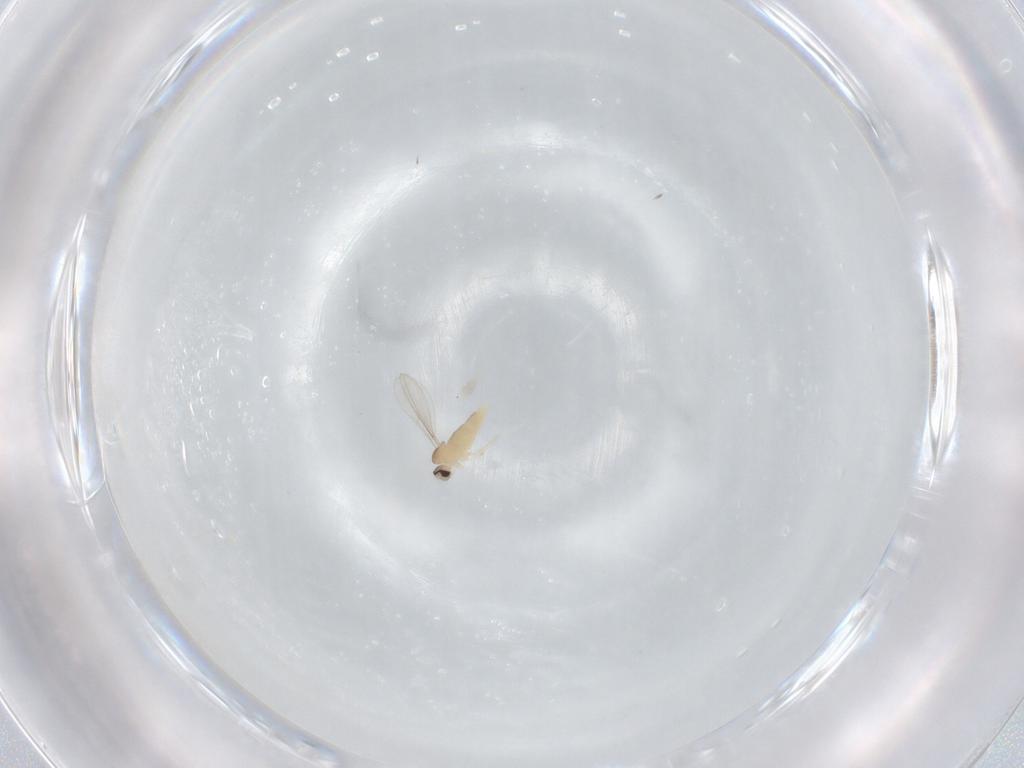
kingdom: Animalia
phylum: Arthropoda
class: Insecta
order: Diptera
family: Cecidomyiidae
